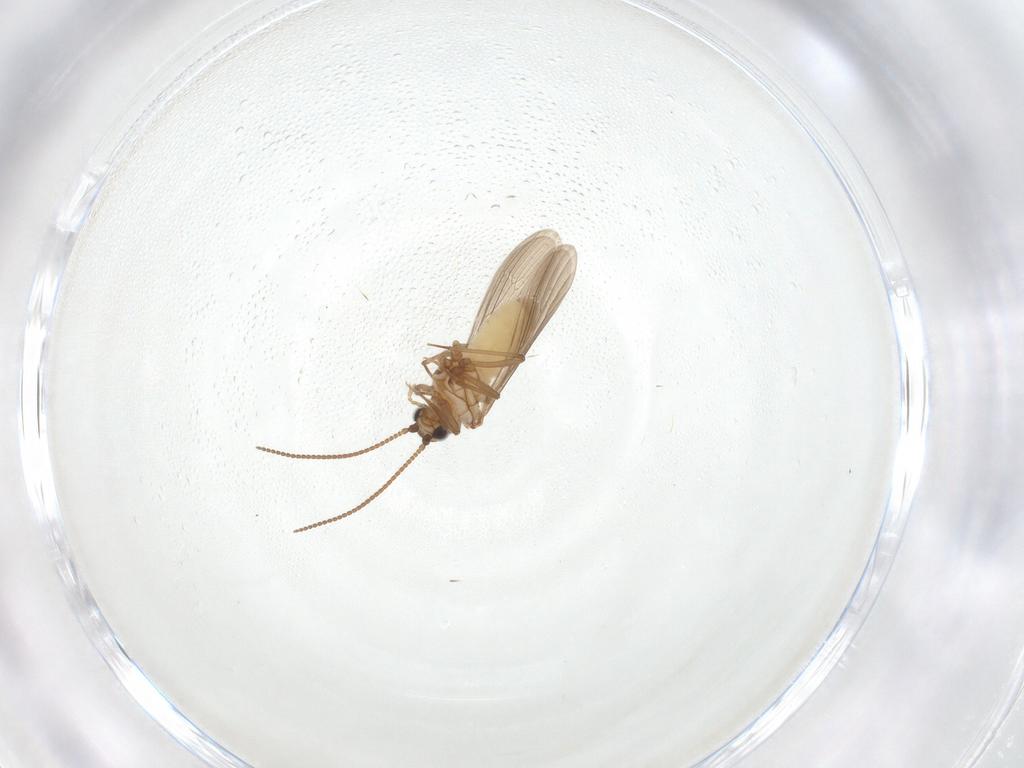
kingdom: Animalia
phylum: Arthropoda
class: Insecta
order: Neuroptera
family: Coniopterygidae
